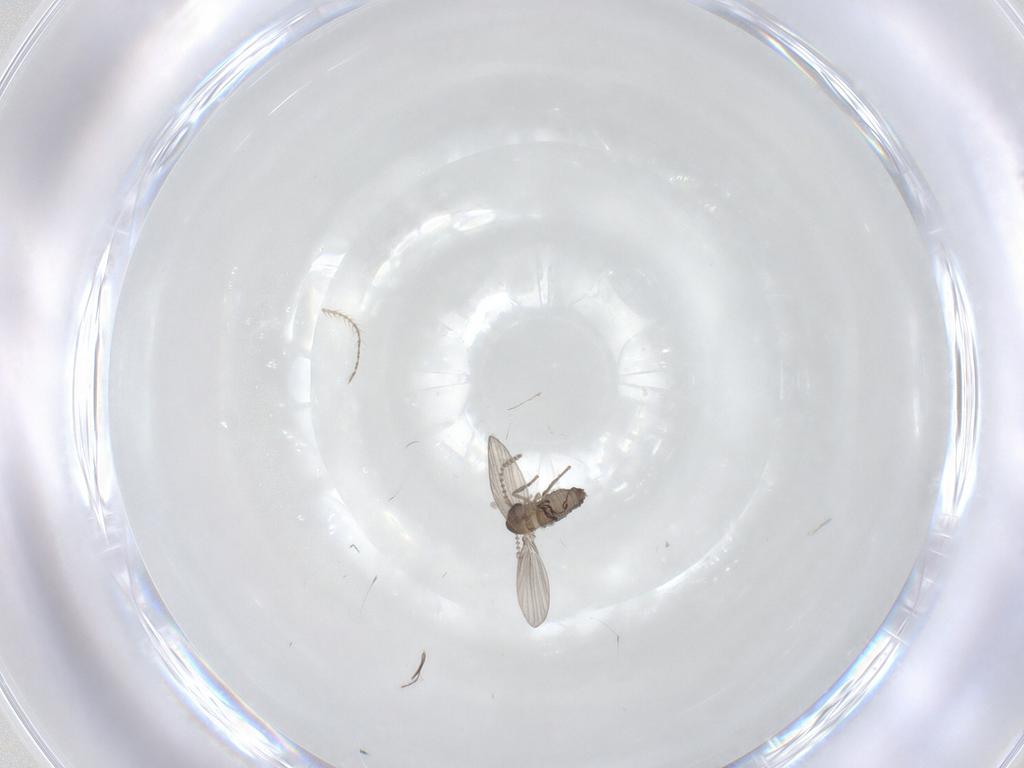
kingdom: Animalia
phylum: Arthropoda
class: Insecta
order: Diptera
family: Ceratopogonidae
